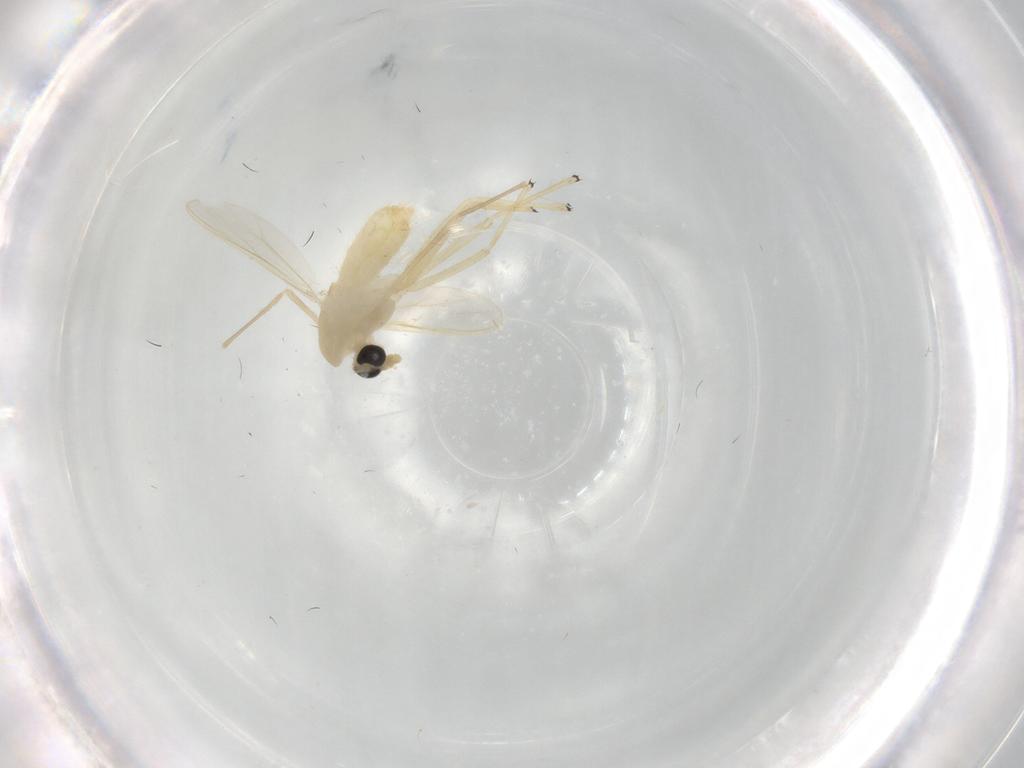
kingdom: Animalia
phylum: Arthropoda
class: Insecta
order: Diptera
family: Chironomidae
